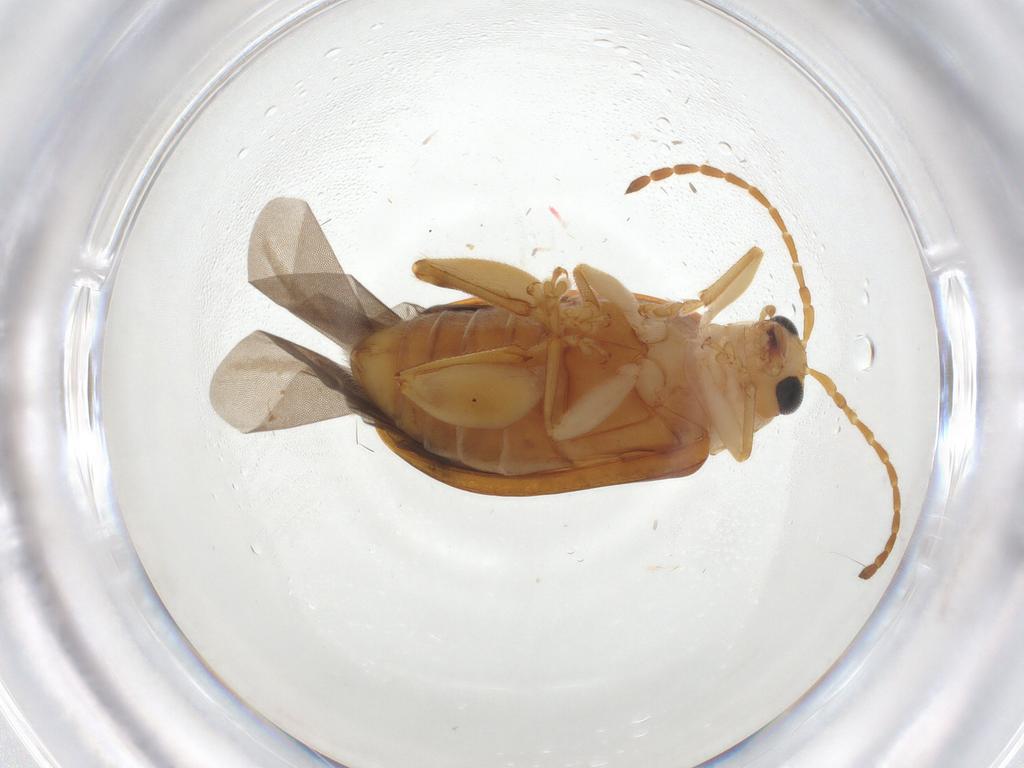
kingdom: Animalia
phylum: Arthropoda
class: Insecta
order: Coleoptera
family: Chrysomelidae
